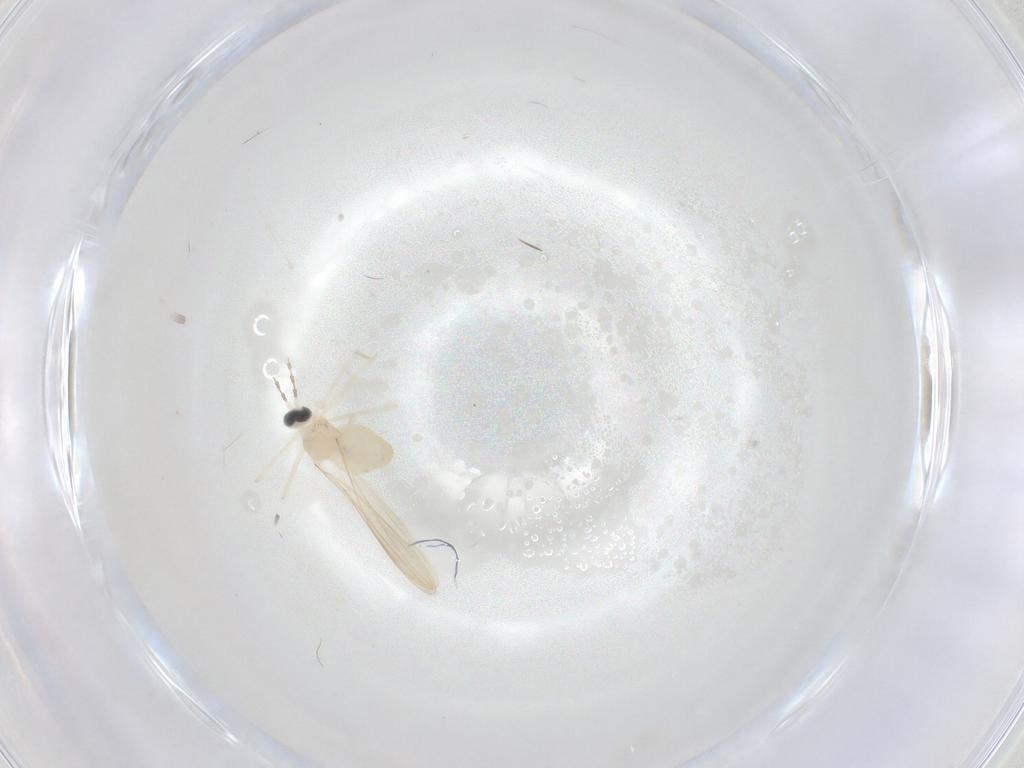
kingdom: Animalia
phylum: Arthropoda
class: Insecta
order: Diptera
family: Cecidomyiidae
